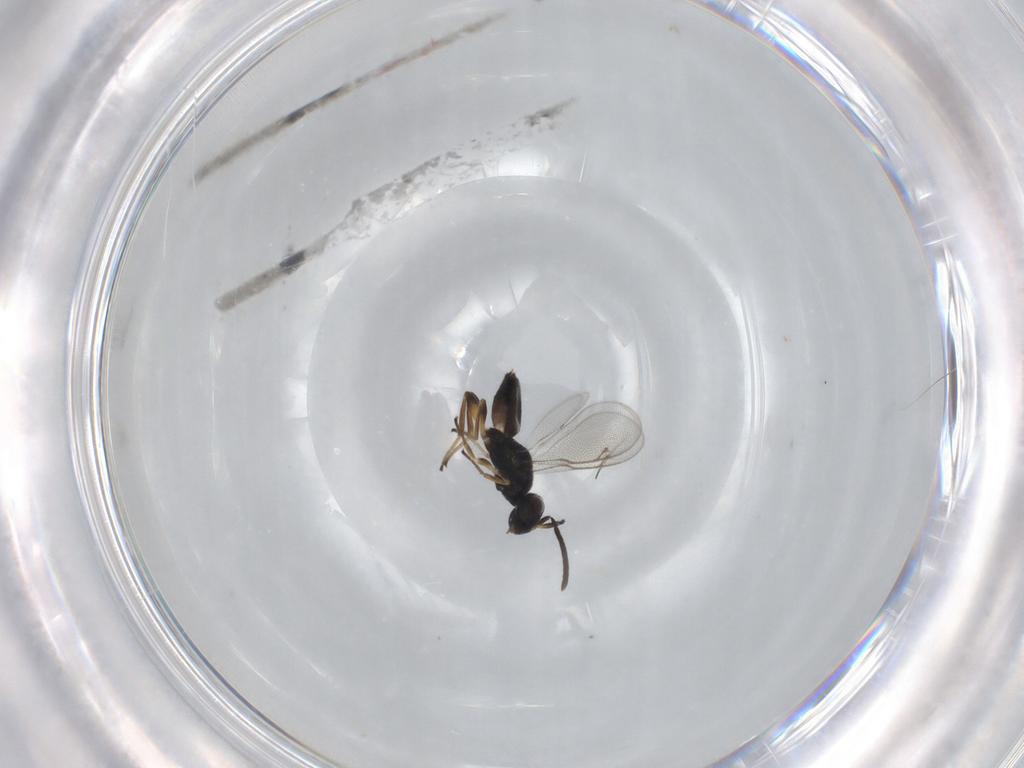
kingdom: Animalia
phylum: Arthropoda
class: Insecta
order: Hymenoptera
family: Eupelmidae
